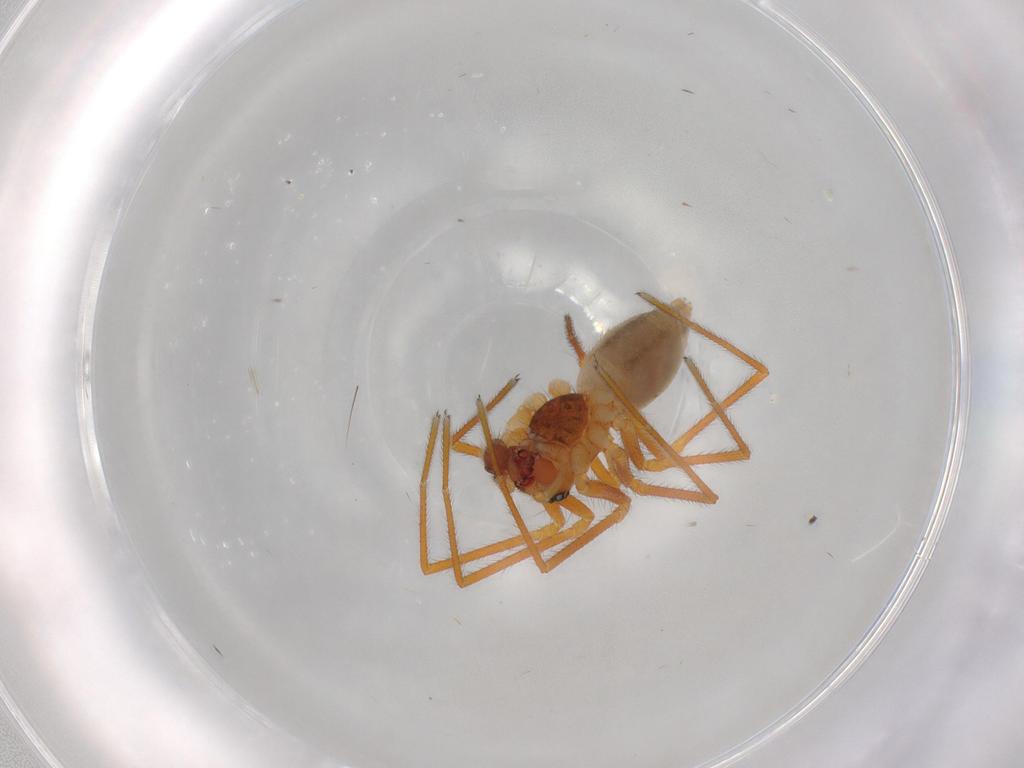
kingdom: Animalia
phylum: Arthropoda
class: Arachnida
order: Araneae
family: Linyphiidae
